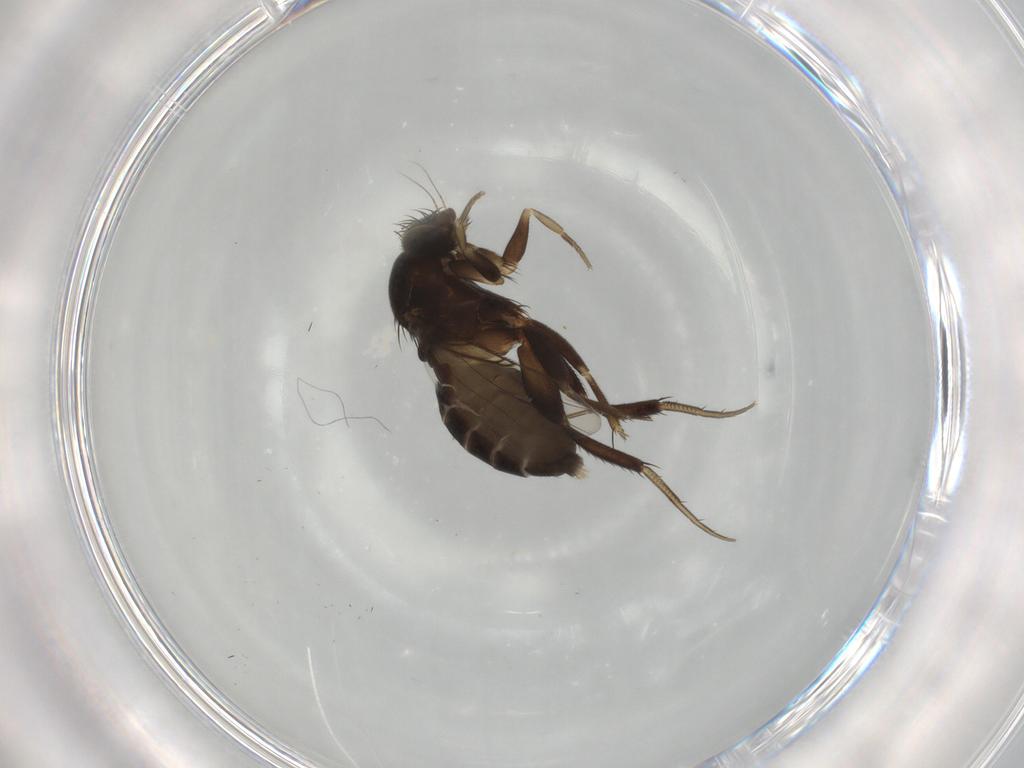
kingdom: Animalia
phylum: Arthropoda
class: Insecta
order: Diptera
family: Phoridae
